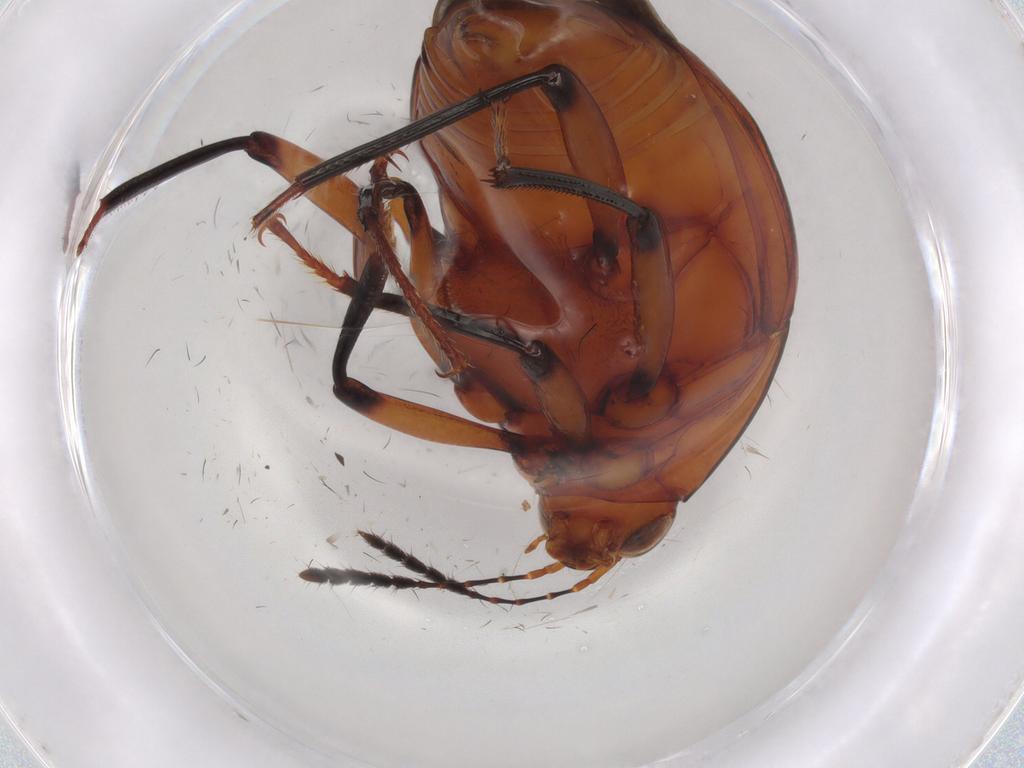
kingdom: Animalia
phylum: Arthropoda
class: Insecta
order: Coleoptera
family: Staphylinidae
